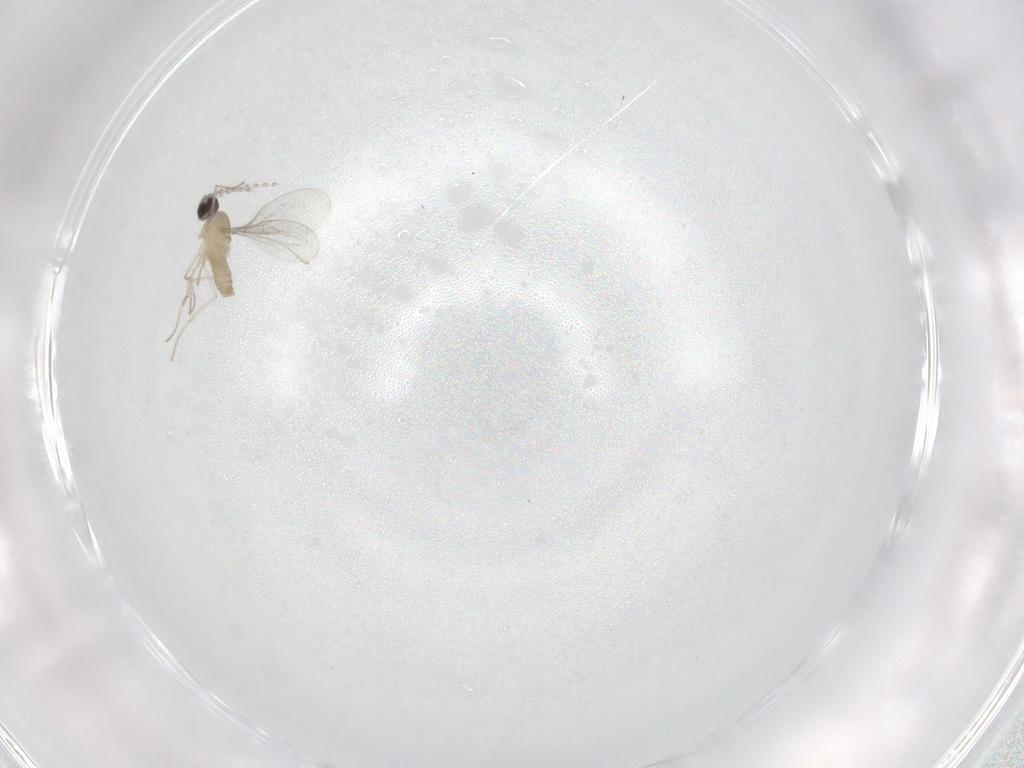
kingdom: Animalia
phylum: Arthropoda
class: Insecta
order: Diptera
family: Cecidomyiidae
